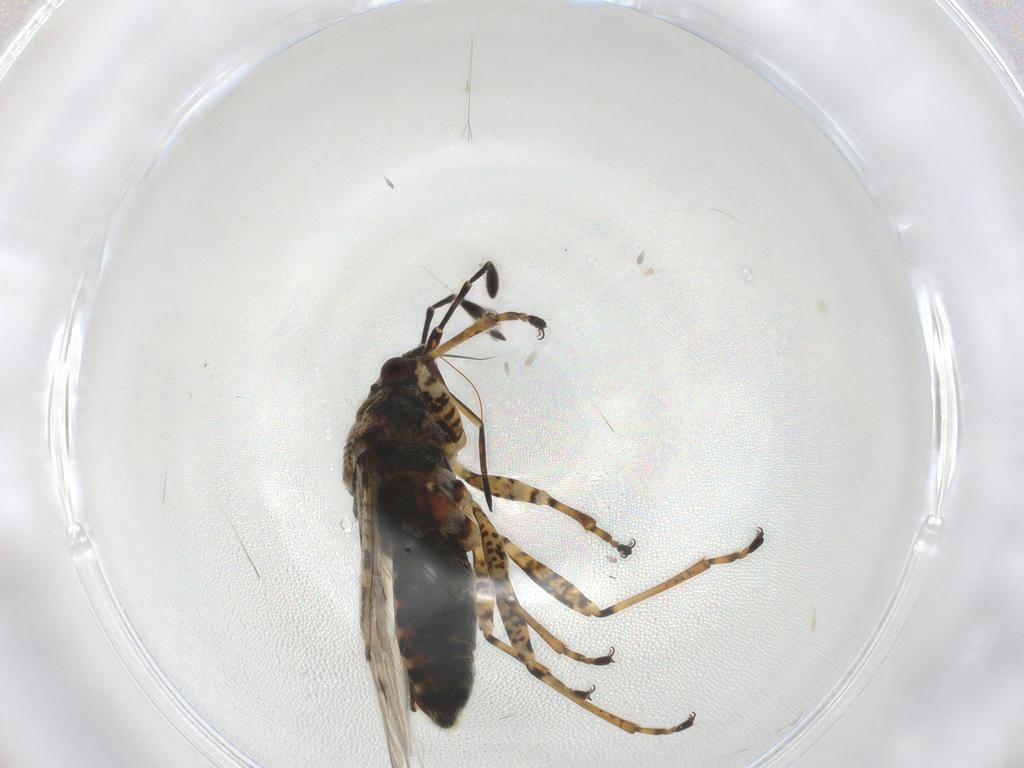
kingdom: Animalia
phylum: Arthropoda
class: Insecta
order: Hemiptera
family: Lygaeidae
